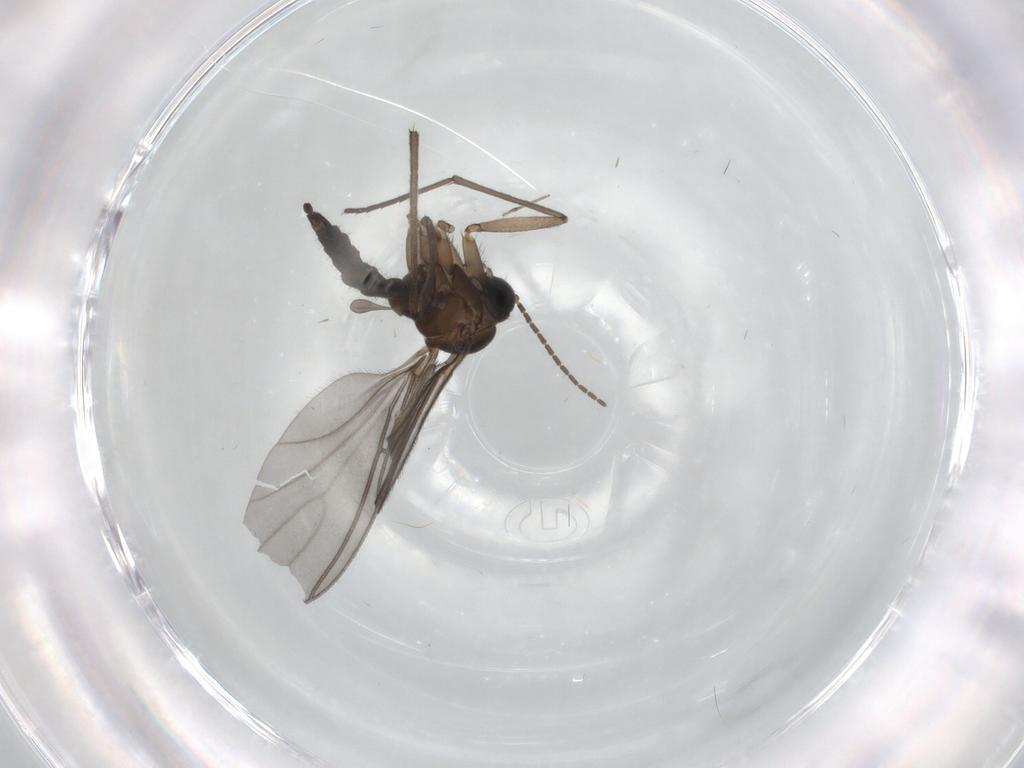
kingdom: Animalia
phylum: Arthropoda
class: Insecta
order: Diptera
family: Sciaridae
